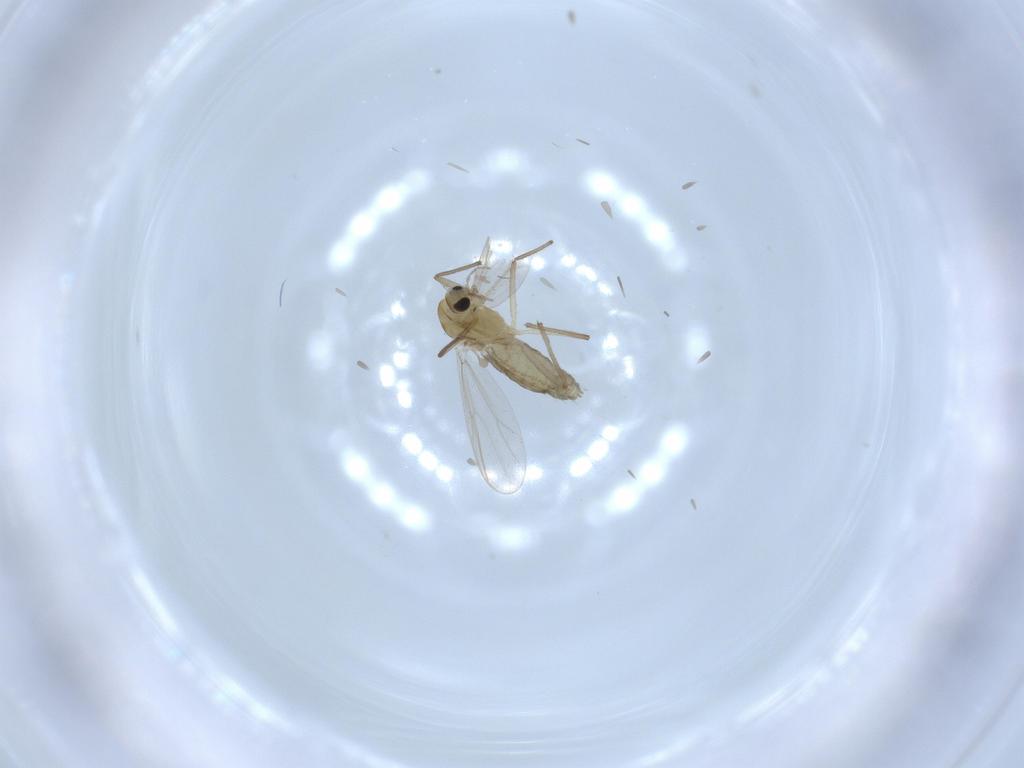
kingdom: Animalia
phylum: Arthropoda
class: Insecta
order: Diptera
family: Chironomidae
